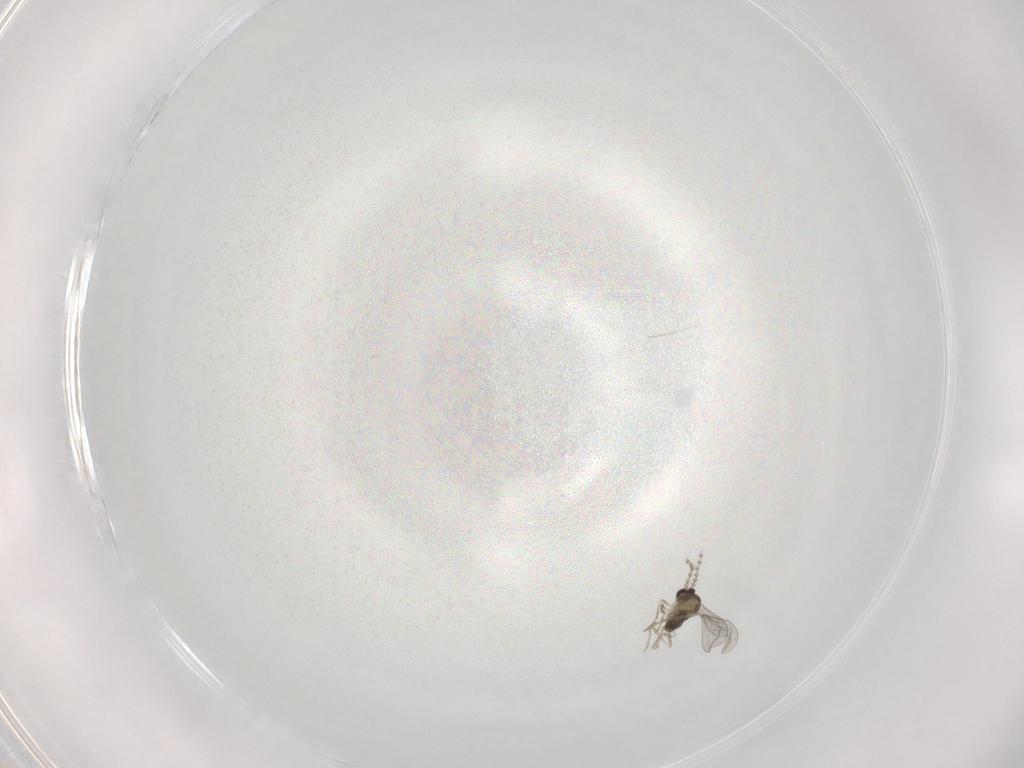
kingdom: Animalia
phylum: Arthropoda
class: Insecta
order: Diptera
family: Cecidomyiidae
